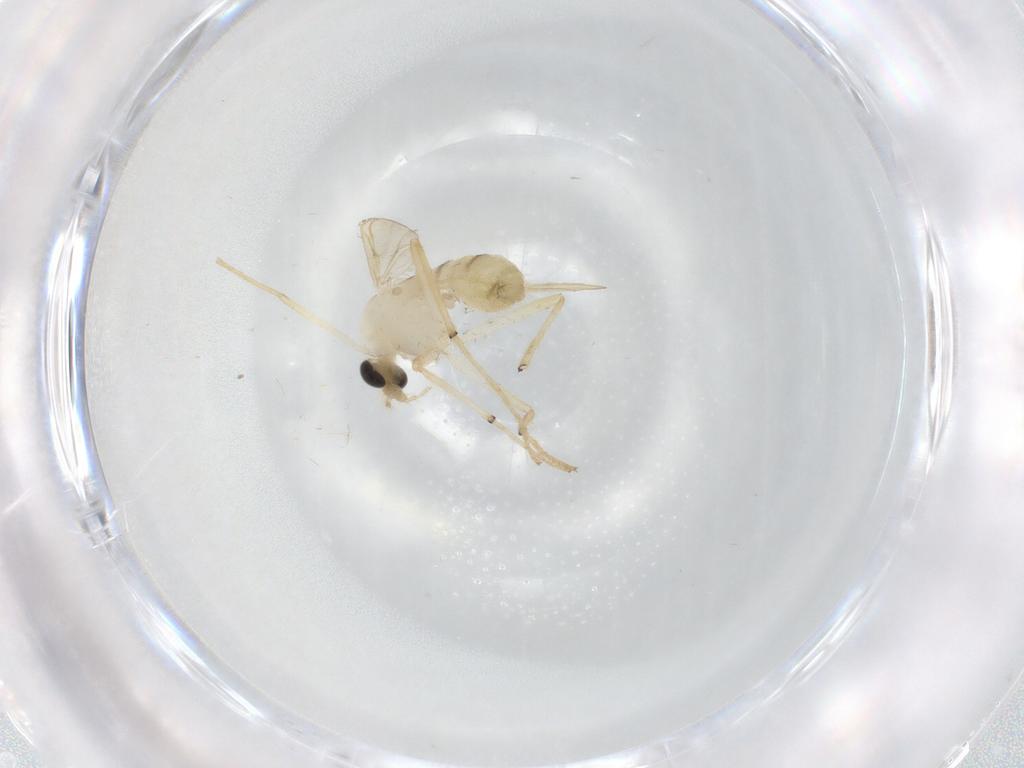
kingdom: Animalia
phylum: Arthropoda
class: Insecta
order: Diptera
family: Chironomidae
